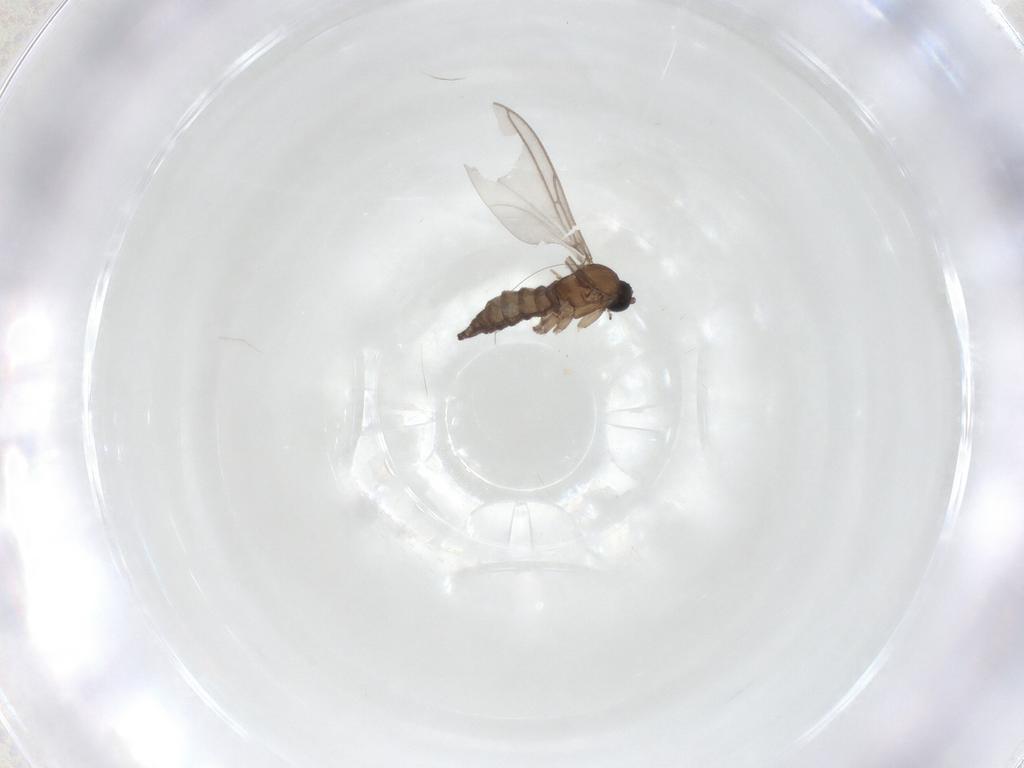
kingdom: Animalia
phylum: Arthropoda
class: Insecta
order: Diptera
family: Sciaridae
